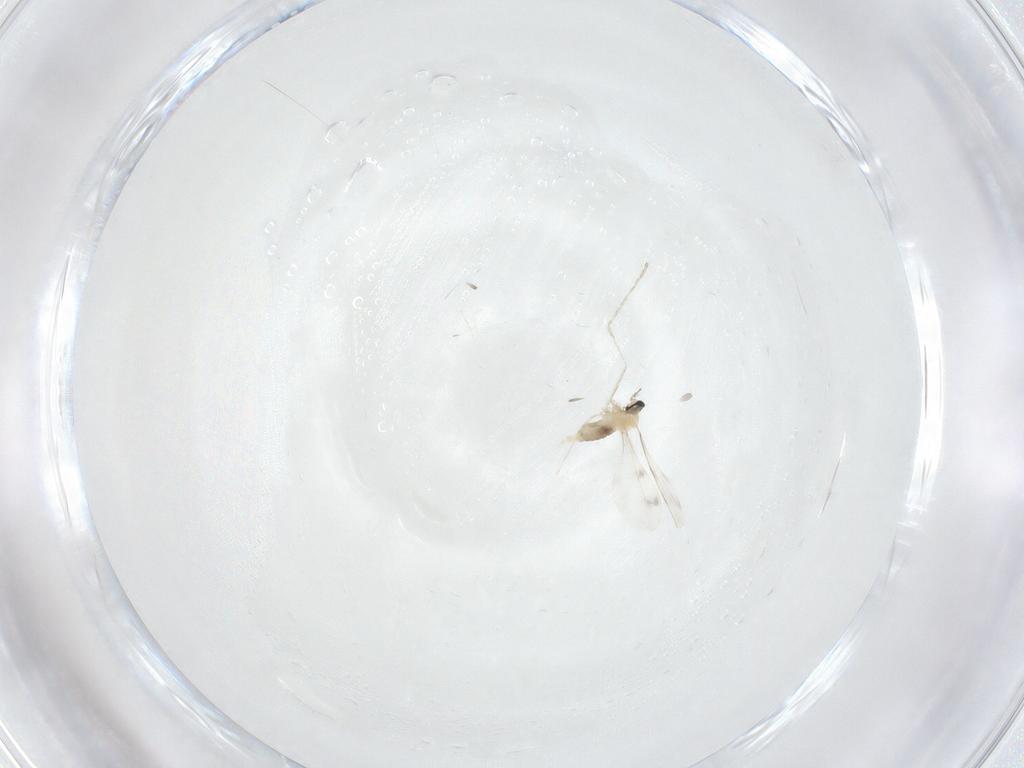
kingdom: Animalia
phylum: Arthropoda
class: Insecta
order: Diptera
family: Cecidomyiidae
